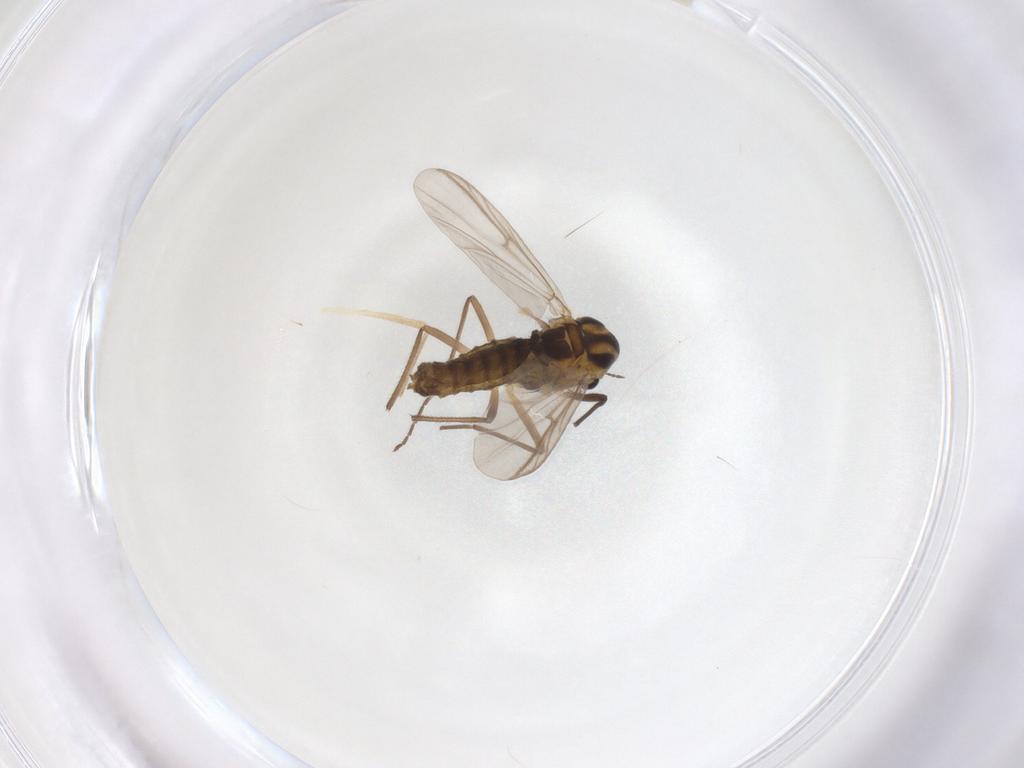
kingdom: Animalia
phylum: Arthropoda
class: Insecta
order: Diptera
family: Chironomidae
